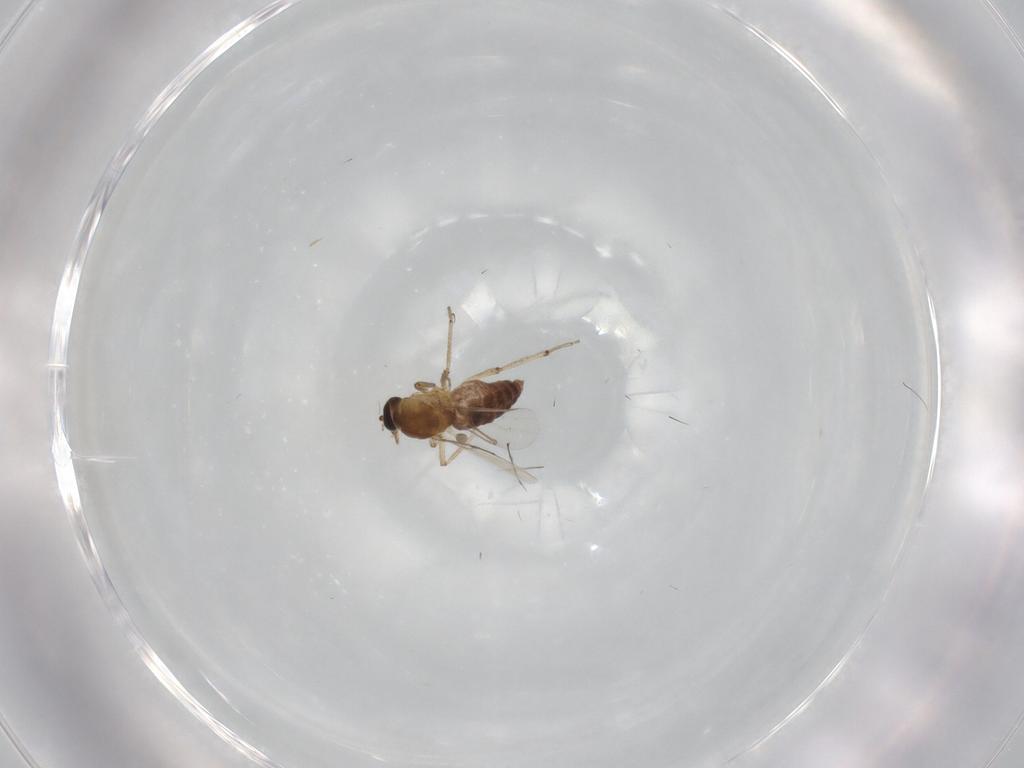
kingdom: Animalia
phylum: Arthropoda
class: Insecta
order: Diptera
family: Ceratopogonidae
